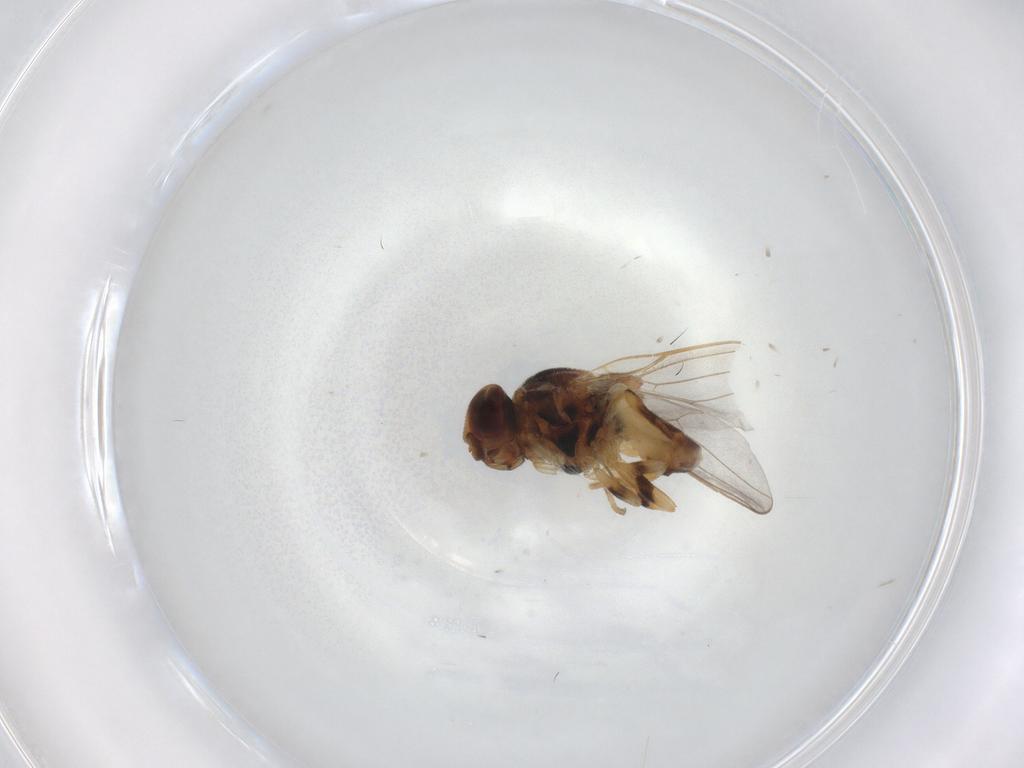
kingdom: Animalia
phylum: Arthropoda
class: Insecta
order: Diptera
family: Chloropidae
